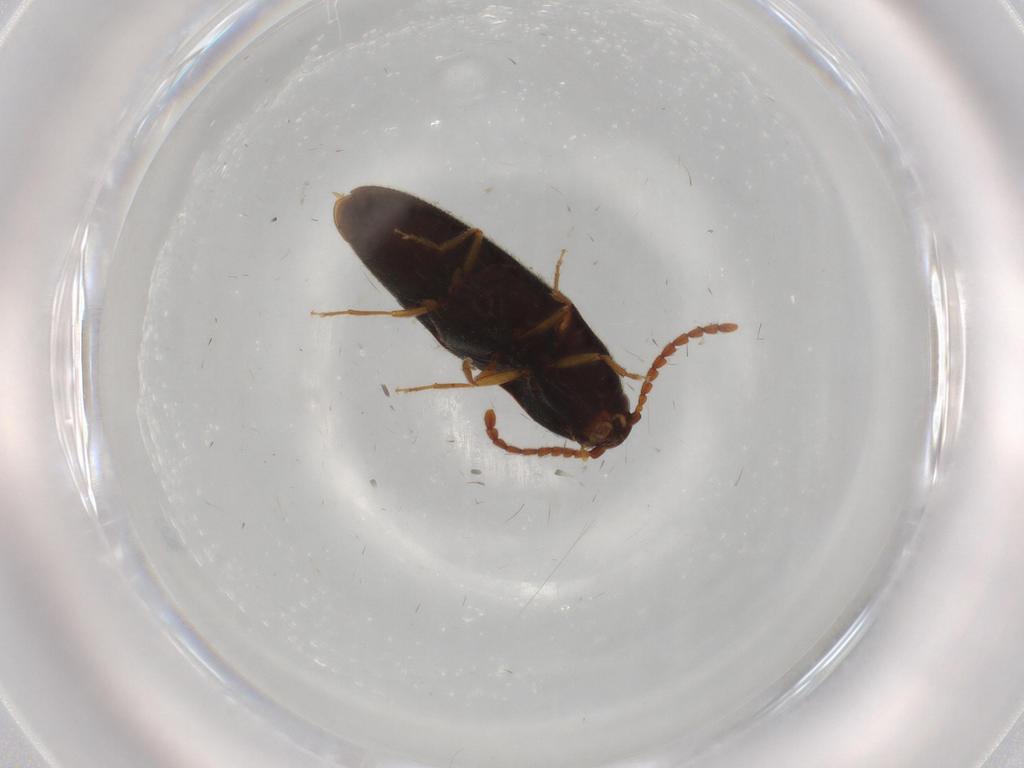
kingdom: Animalia
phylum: Arthropoda
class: Insecta
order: Coleoptera
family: Elateridae
